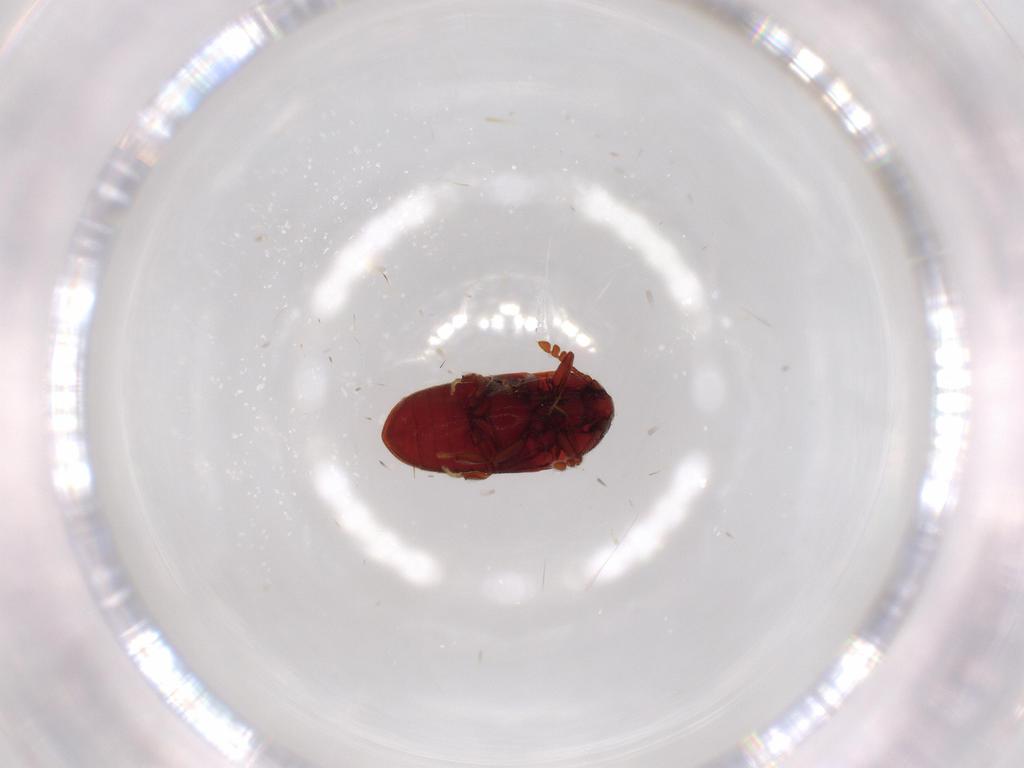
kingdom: Animalia
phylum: Arthropoda
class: Insecta
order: Coleoptera
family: Throscidae
